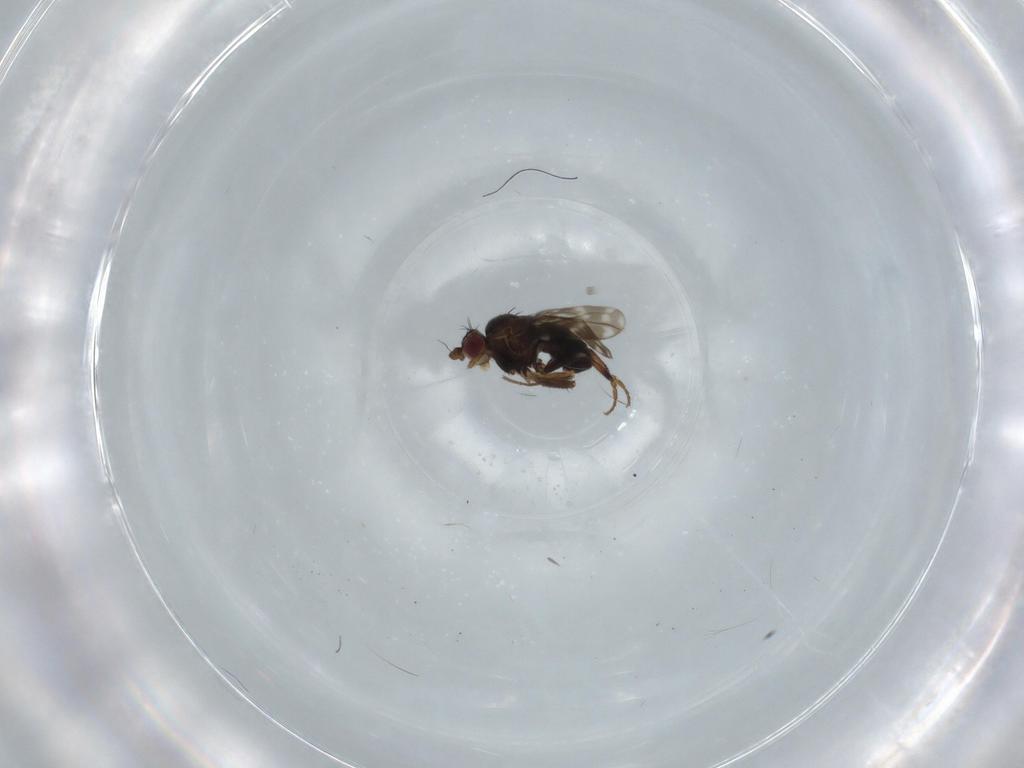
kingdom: Animalia
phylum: Arthropoda
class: Insecta
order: Diptera
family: Sphaeroceridae
